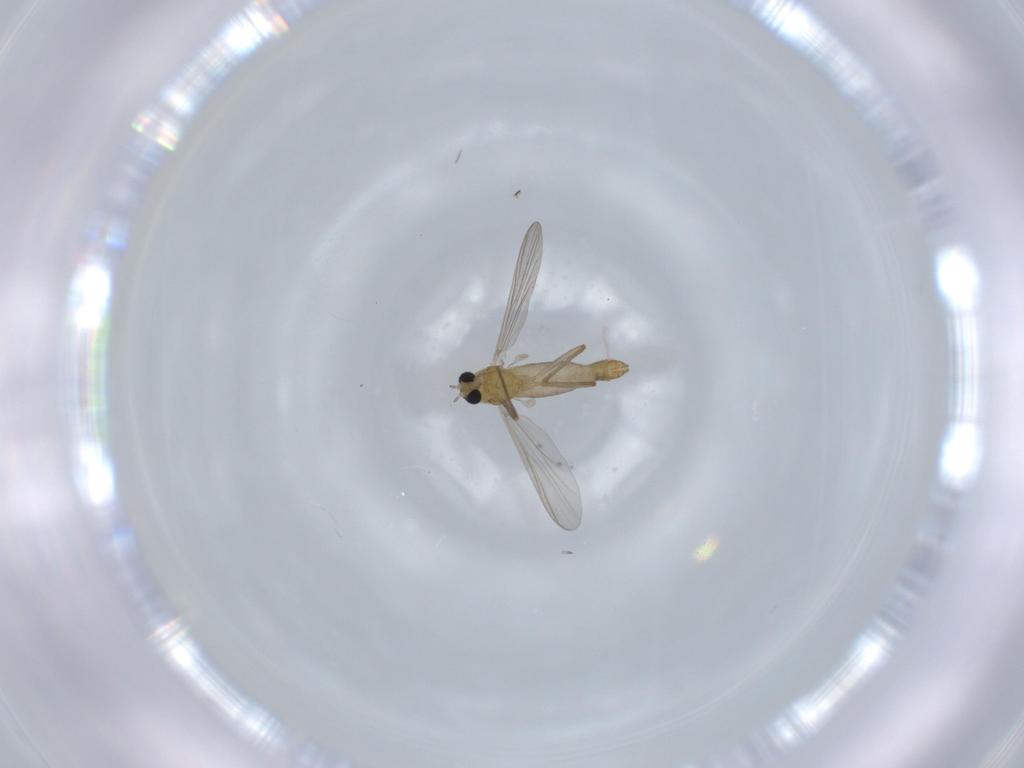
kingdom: Animalia
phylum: Arthropoda
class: Insecta
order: Diptera
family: Chironomidae
